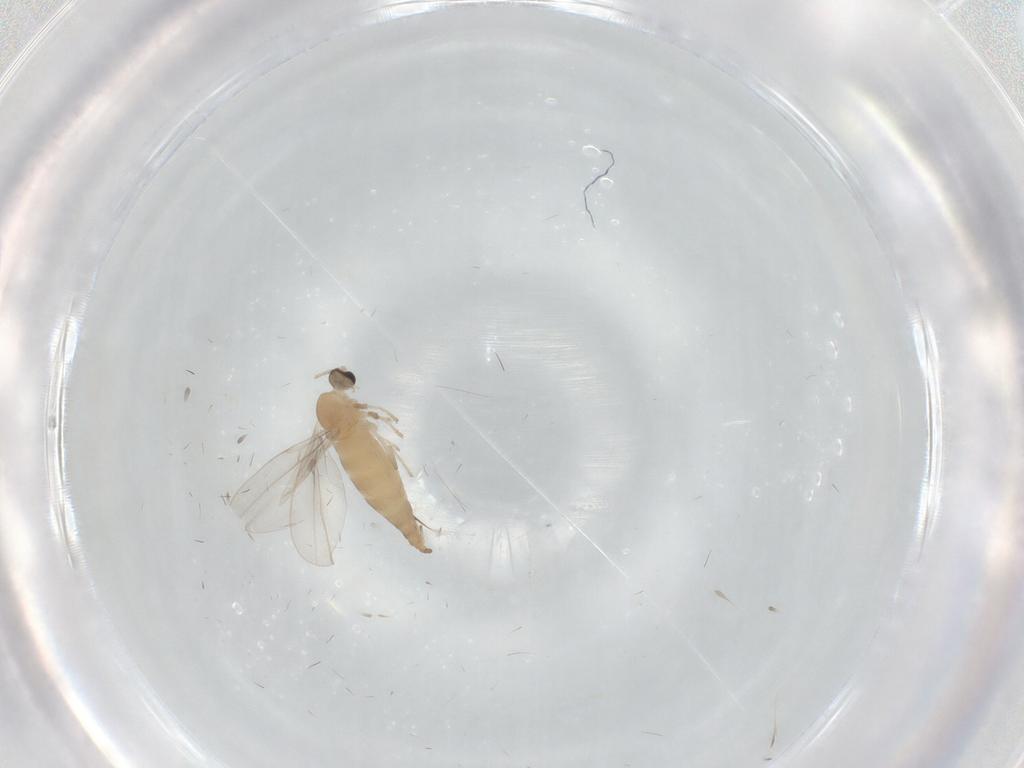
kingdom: Animalia
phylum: Arthropoda
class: Insecta
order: Diptera
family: Cecidomyiidae
